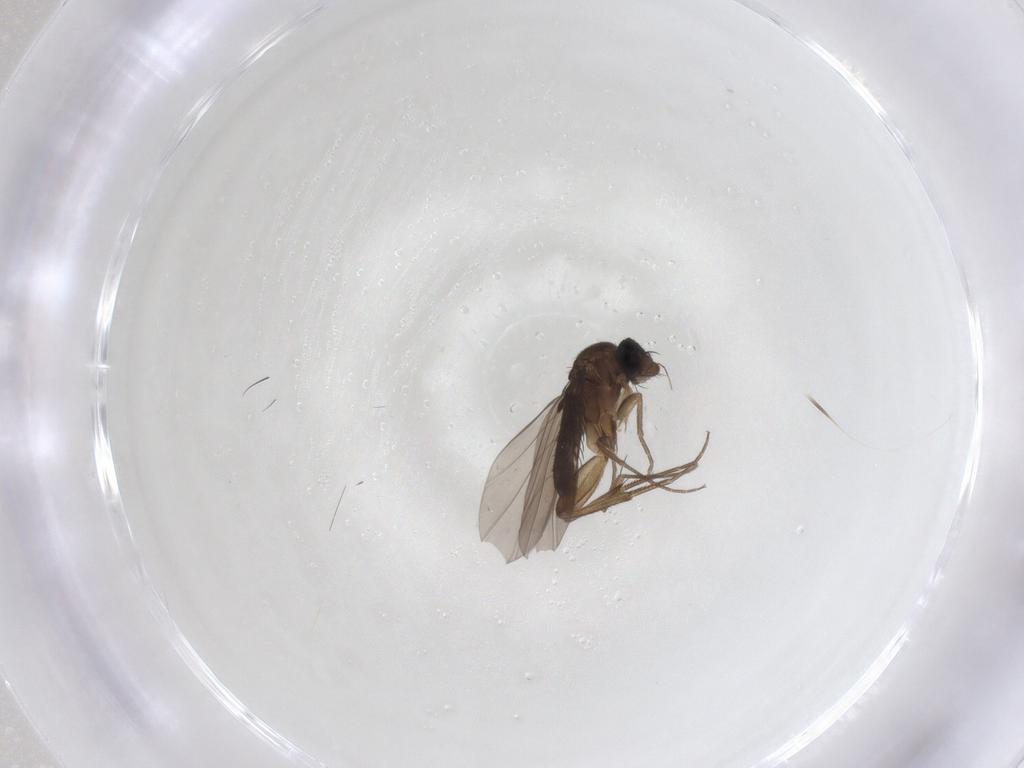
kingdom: Animalia
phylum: Arthropoda
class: Insecta
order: Diptera
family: Phoridae
